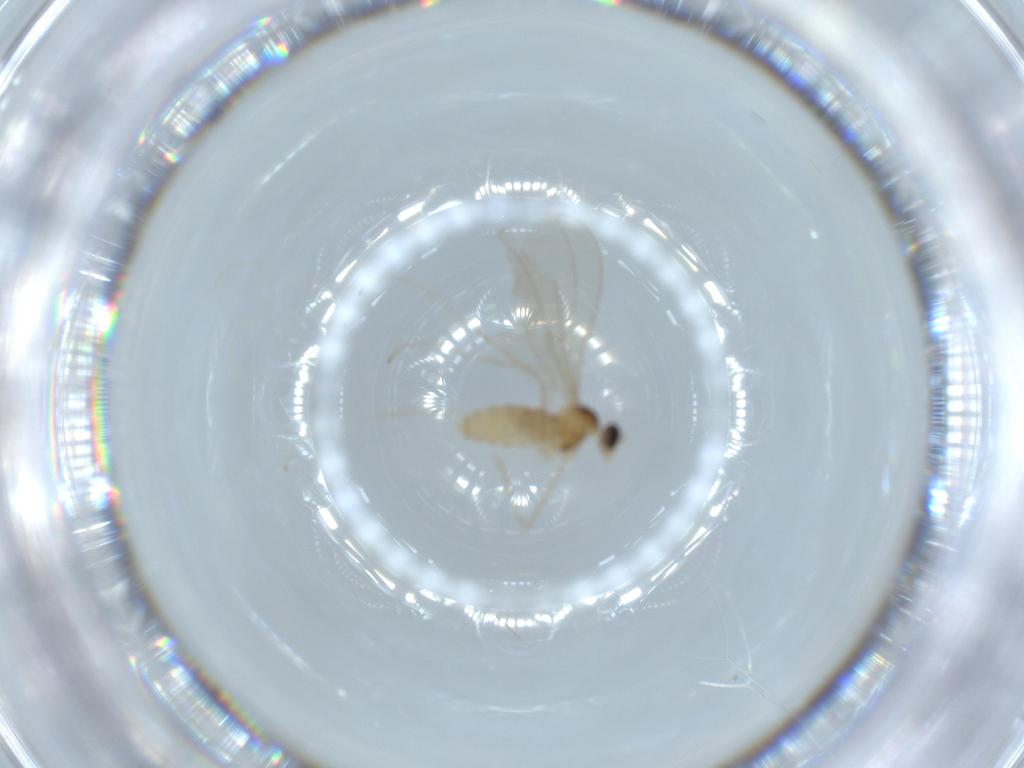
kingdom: Animalia
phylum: Arthropoda
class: Insecta
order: Diptera
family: Cecidomyiidae
